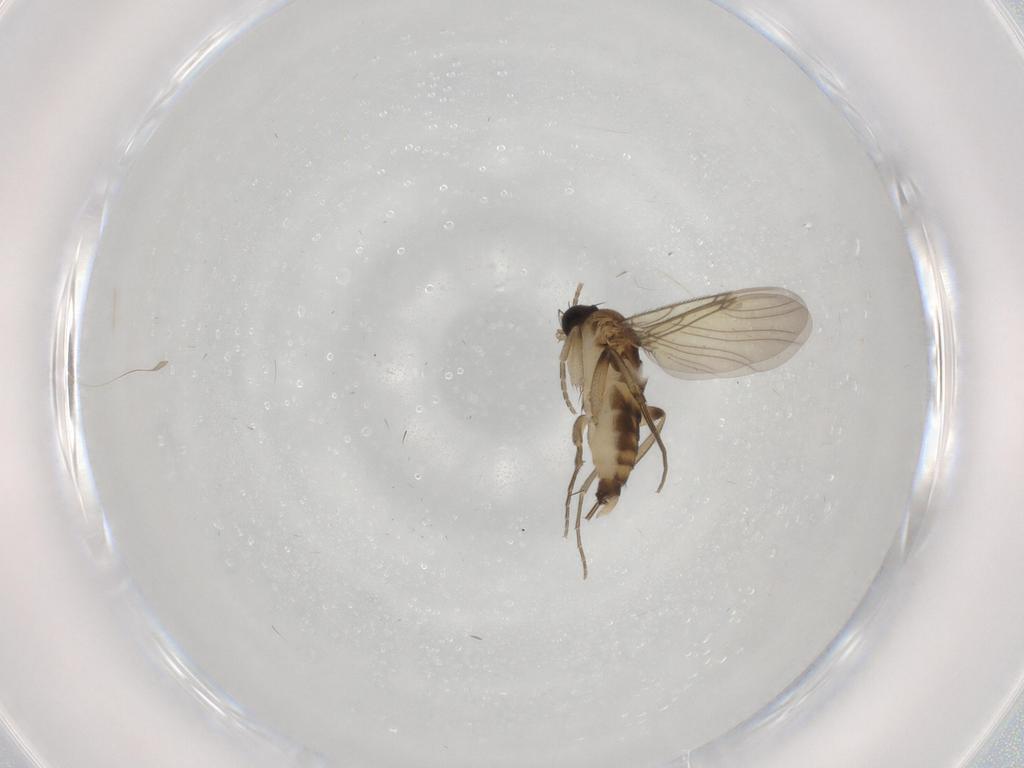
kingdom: Animalia
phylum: Arthropoda
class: Insecta
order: Diptera
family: Phoridae
